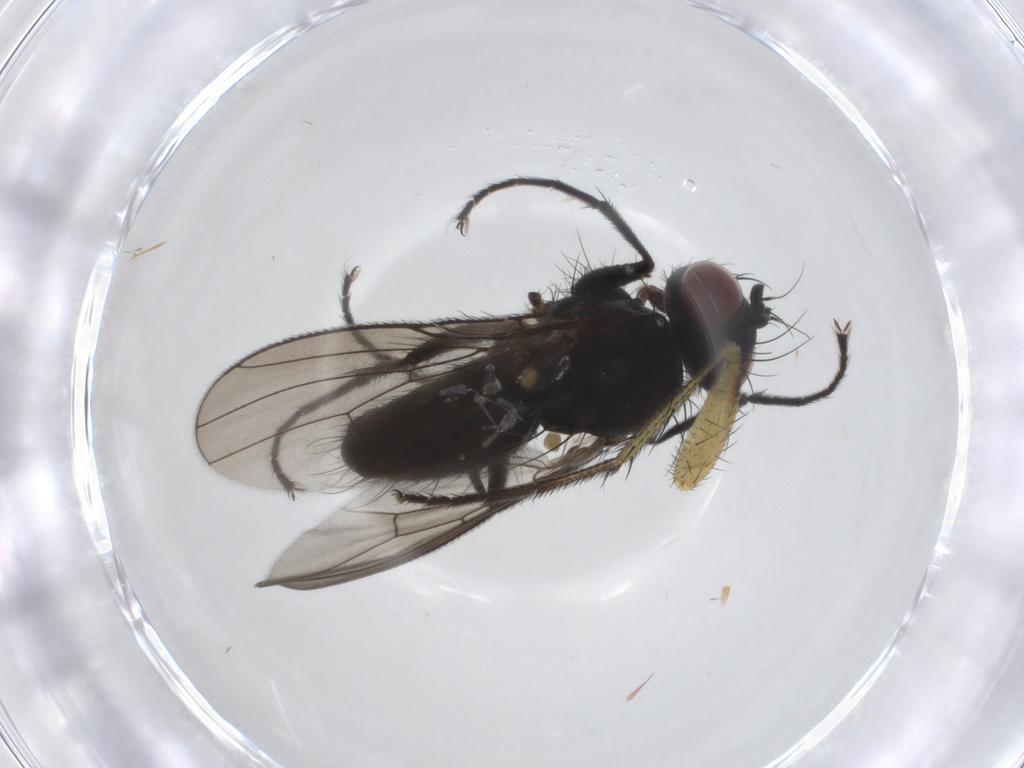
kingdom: Animalia
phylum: Arthropoda
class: Insecta
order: Diptera
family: Muscidae
